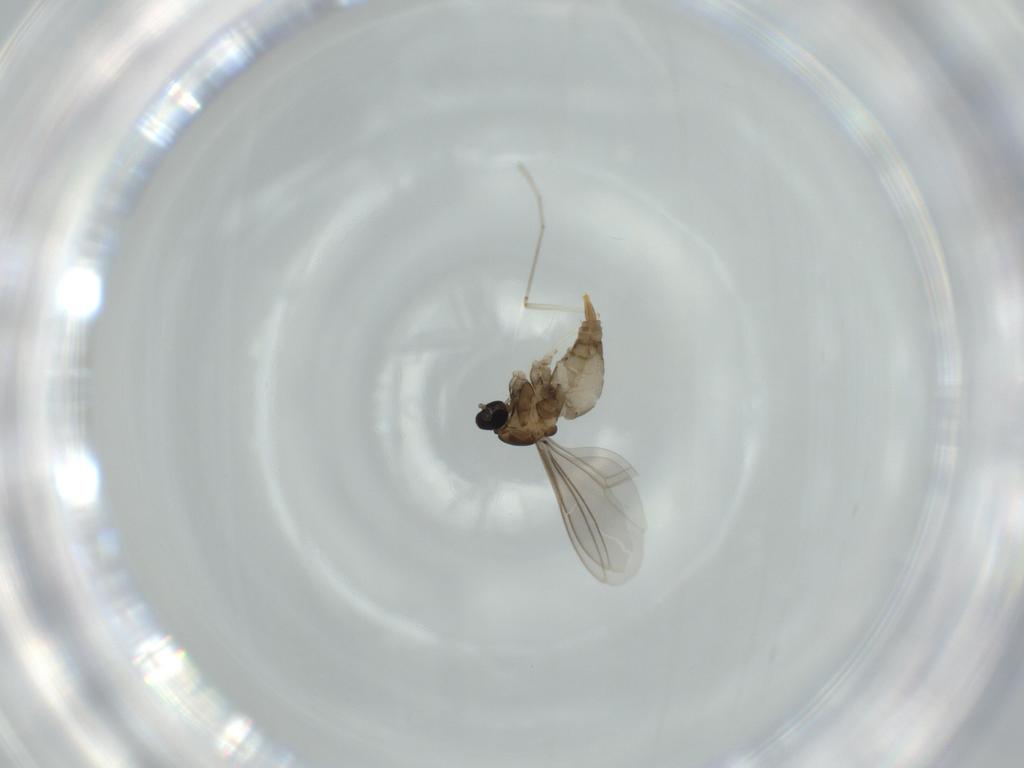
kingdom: Animalia
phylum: Arthropoda
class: Insecta
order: Diptera
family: Cecidomyiidae
